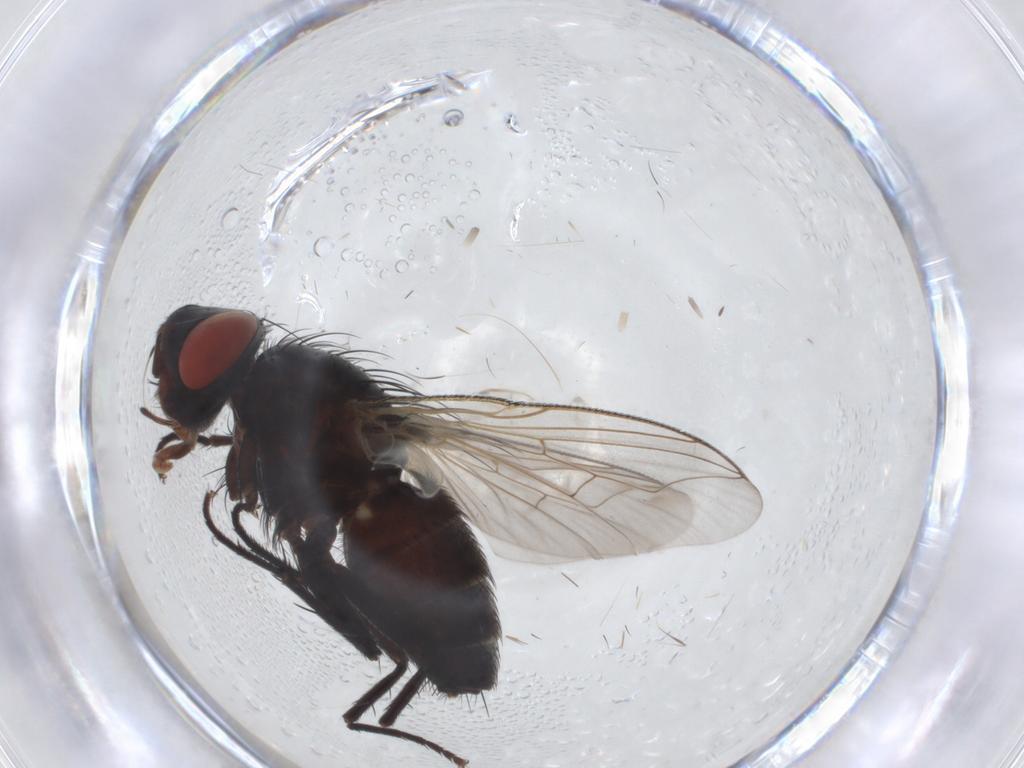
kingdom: Animalia
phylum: Arthropoda
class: Insecta
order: Diptera
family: Sarcophagidae
